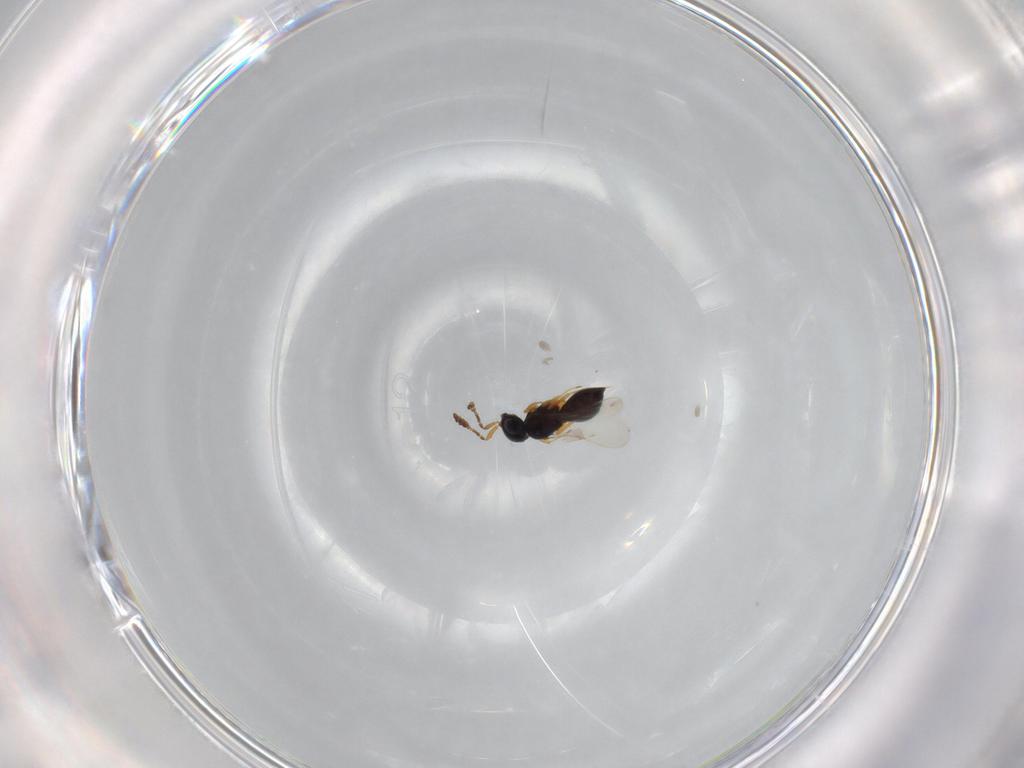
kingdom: Animalia
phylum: Arthropoda
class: Insecta
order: Hymenoptera
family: Scelionidae
